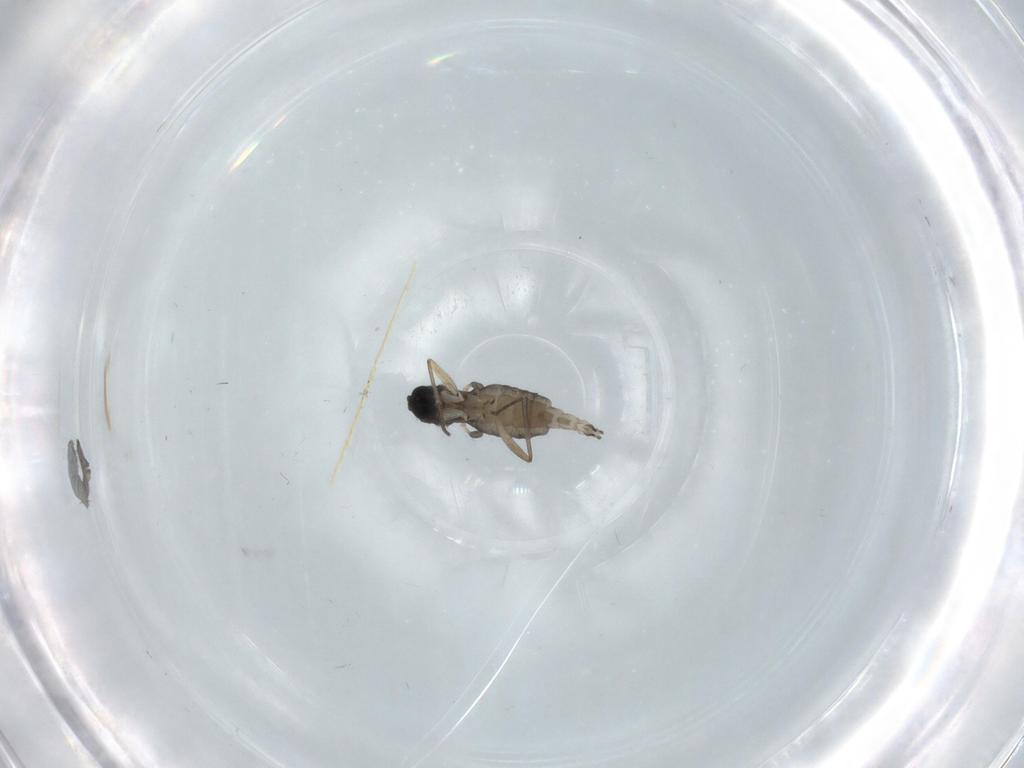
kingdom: Animalia
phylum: Arthropoda
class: Insecta
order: Diptera
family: Sciaridae
